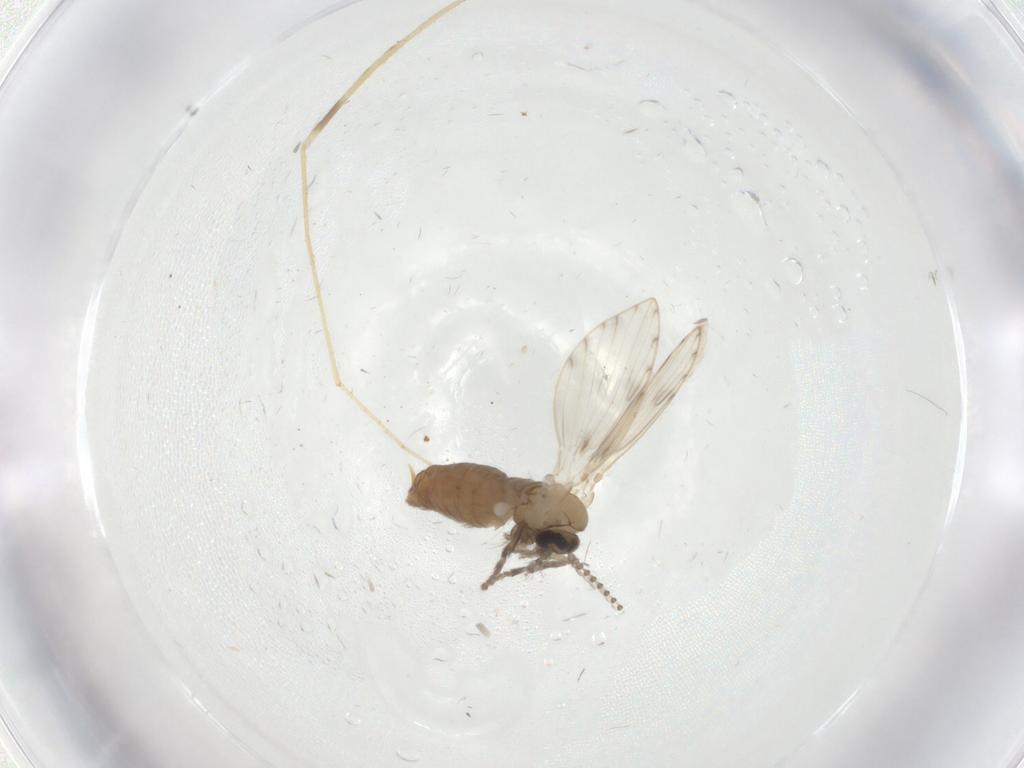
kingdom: Animalia
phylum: Arthropoda
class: Insecta
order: Diptera
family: Psychodidae
